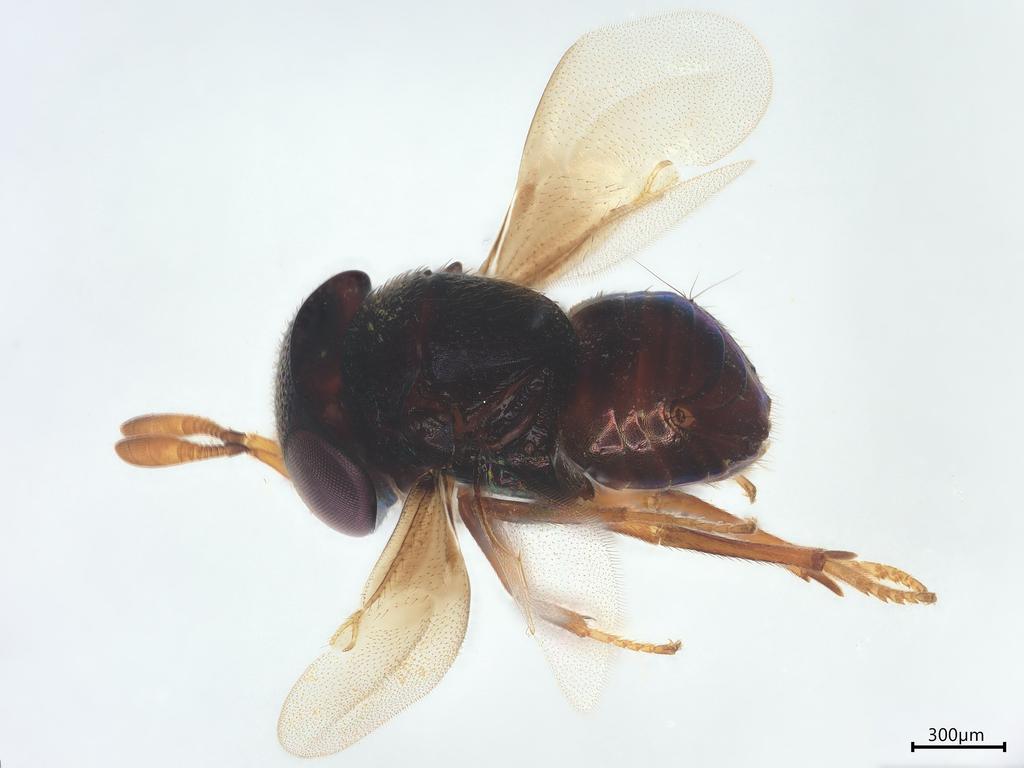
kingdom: Animalia
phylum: Arthropoda
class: Insecta
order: Hymenoptera
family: Encyrtidae
